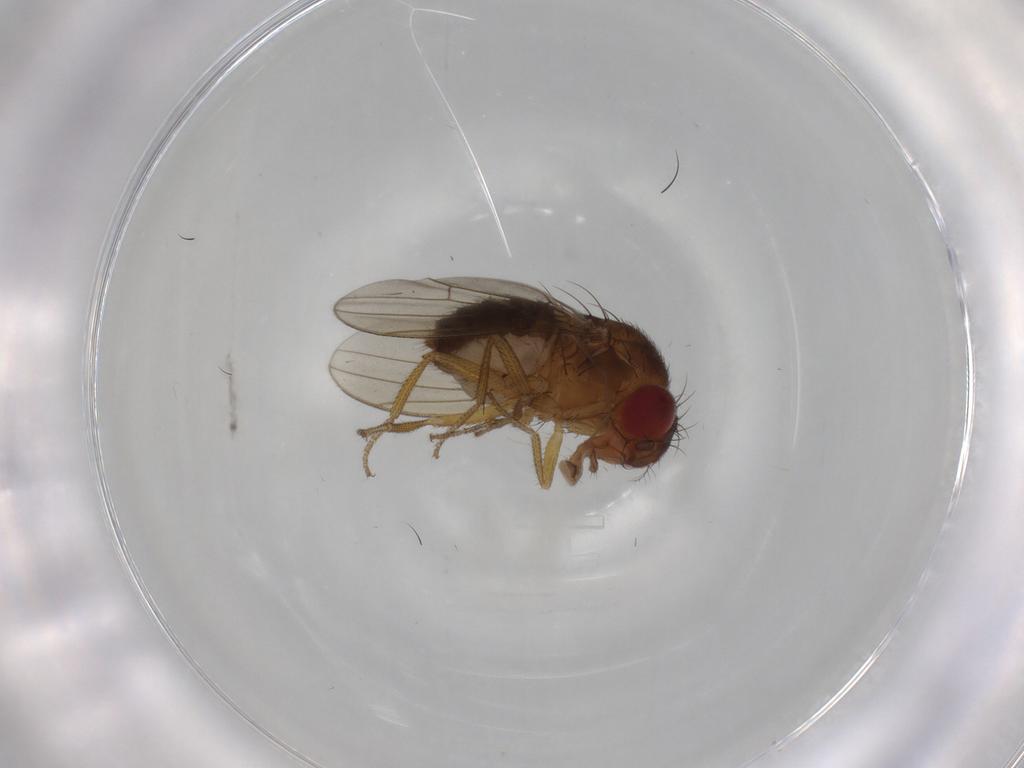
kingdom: Animalia
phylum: Arthropoda
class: Insecta
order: Diptera
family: Drosophilidae
